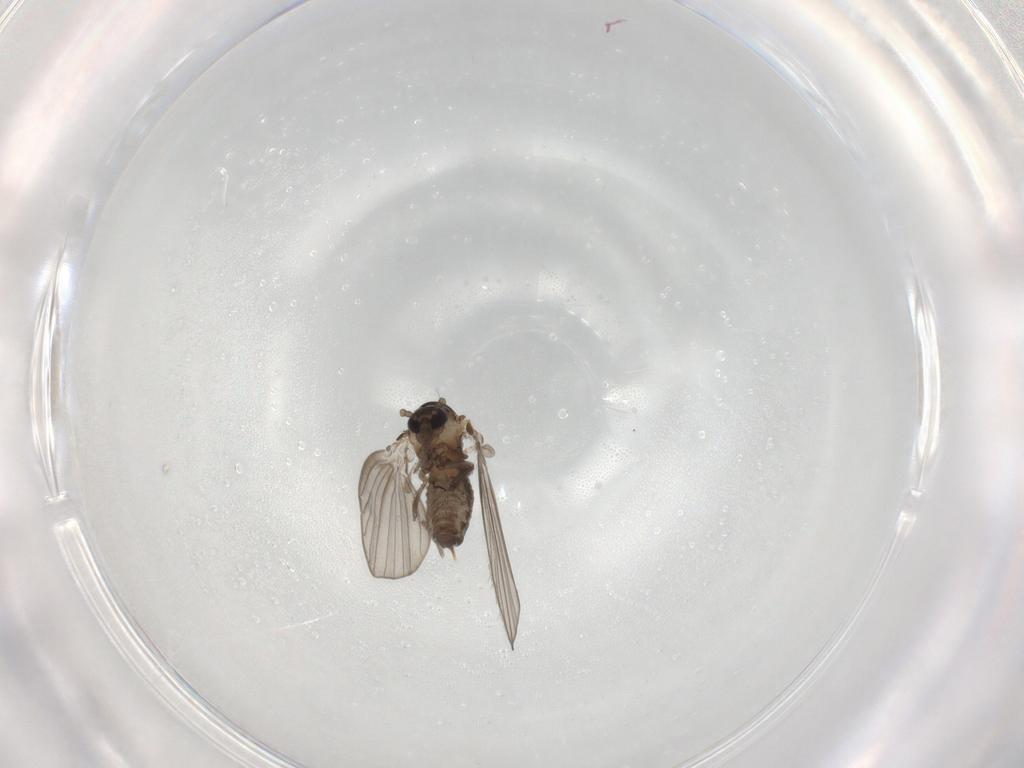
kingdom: Animalia
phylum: Arthropoda
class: Insecta
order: Diptera
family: Psychodidae
